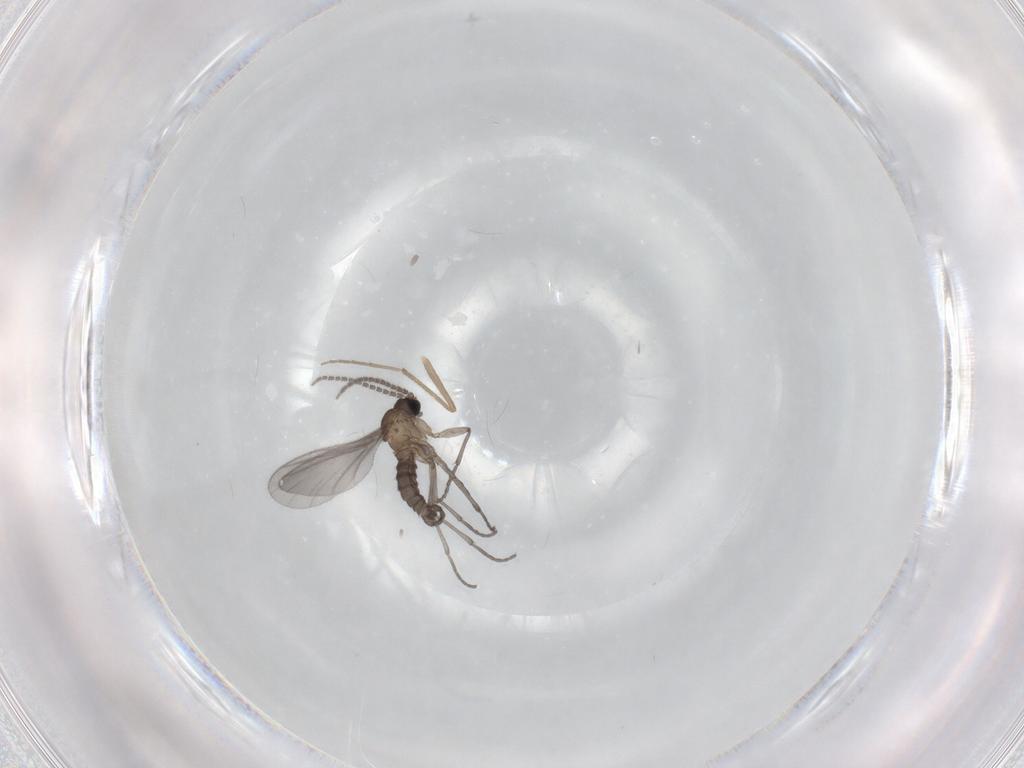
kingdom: Animalia
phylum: Arthropoda
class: Insecta
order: Diptera
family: Sciaridae
